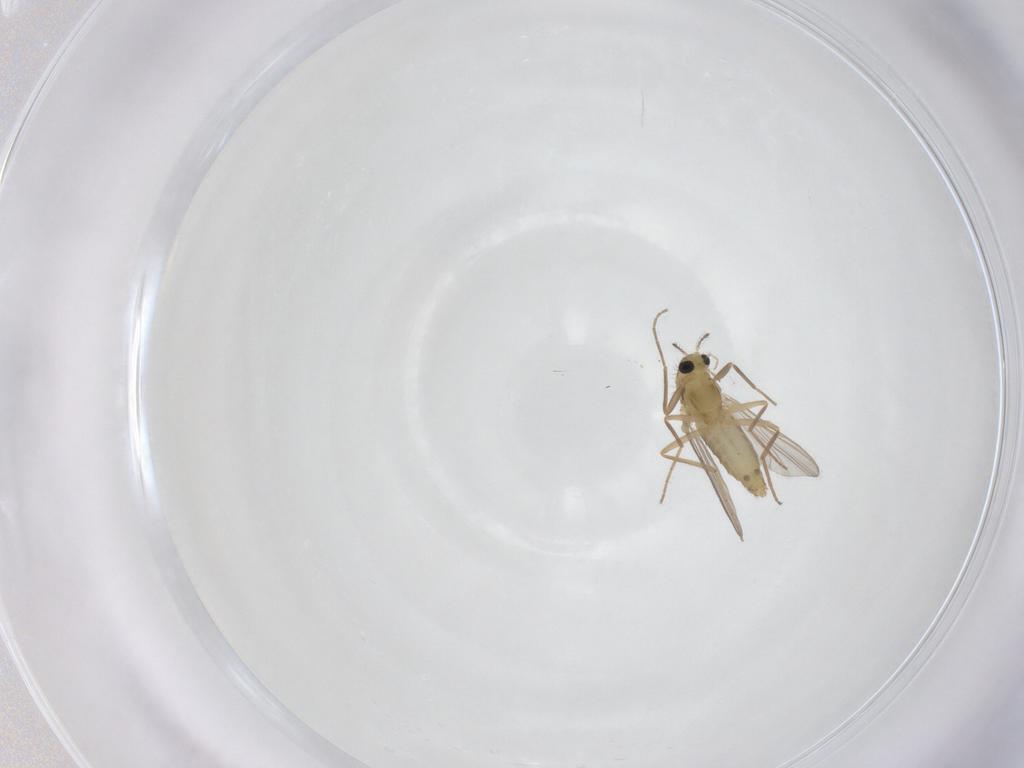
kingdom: Animalia
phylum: Arthropoda
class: Insecta
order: Diptera
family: Chironomidae
